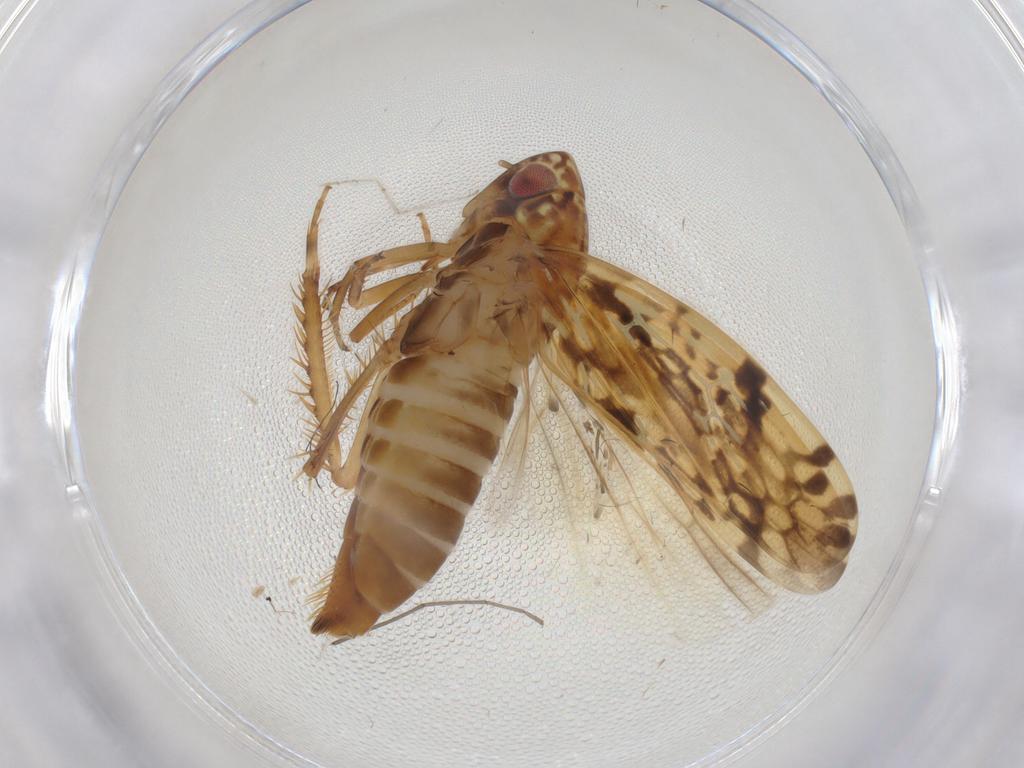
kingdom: Animalia
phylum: Arthropoda
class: Insecta
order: Hemiptera
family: Cicadellidae
